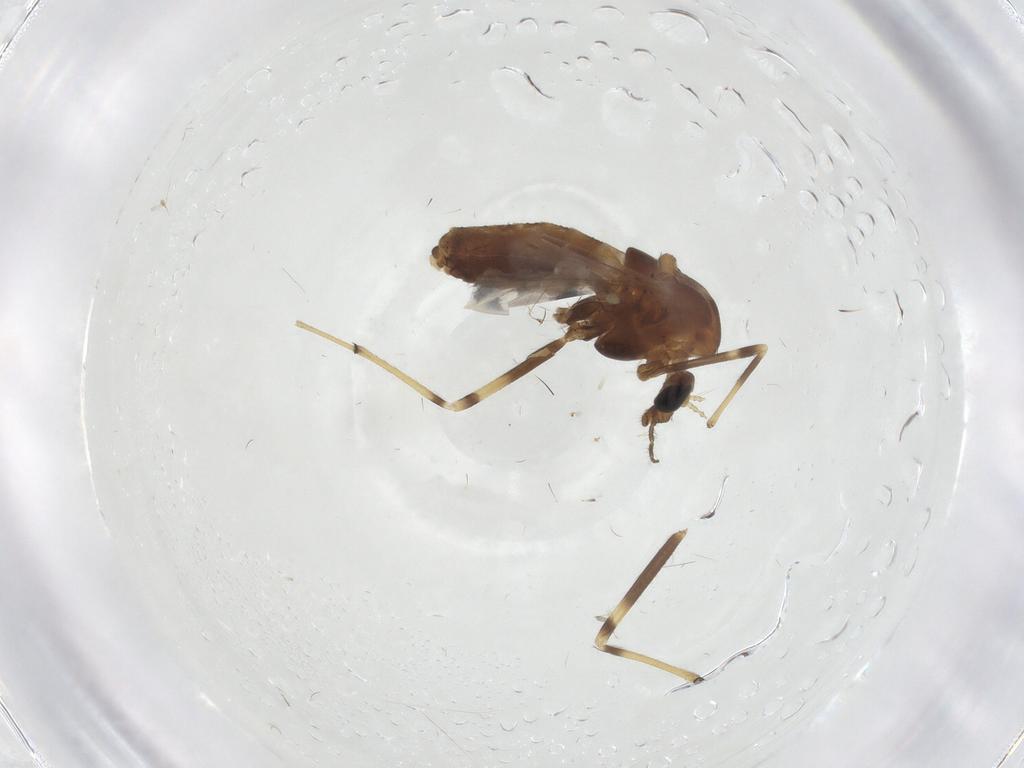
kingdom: Animalia
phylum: Arthropoda
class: Insecta
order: Diptera
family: Chironomidae
